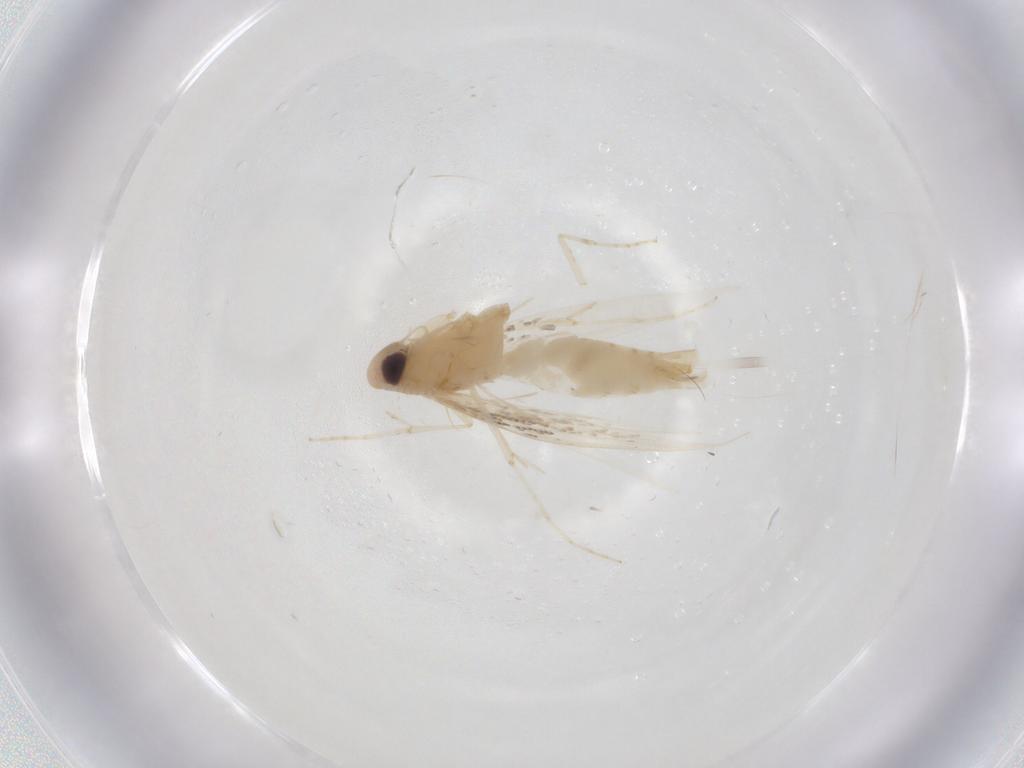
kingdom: Animalia
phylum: Arthropoda
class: Insecta
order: Lepidoptera
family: Gracillariidae
